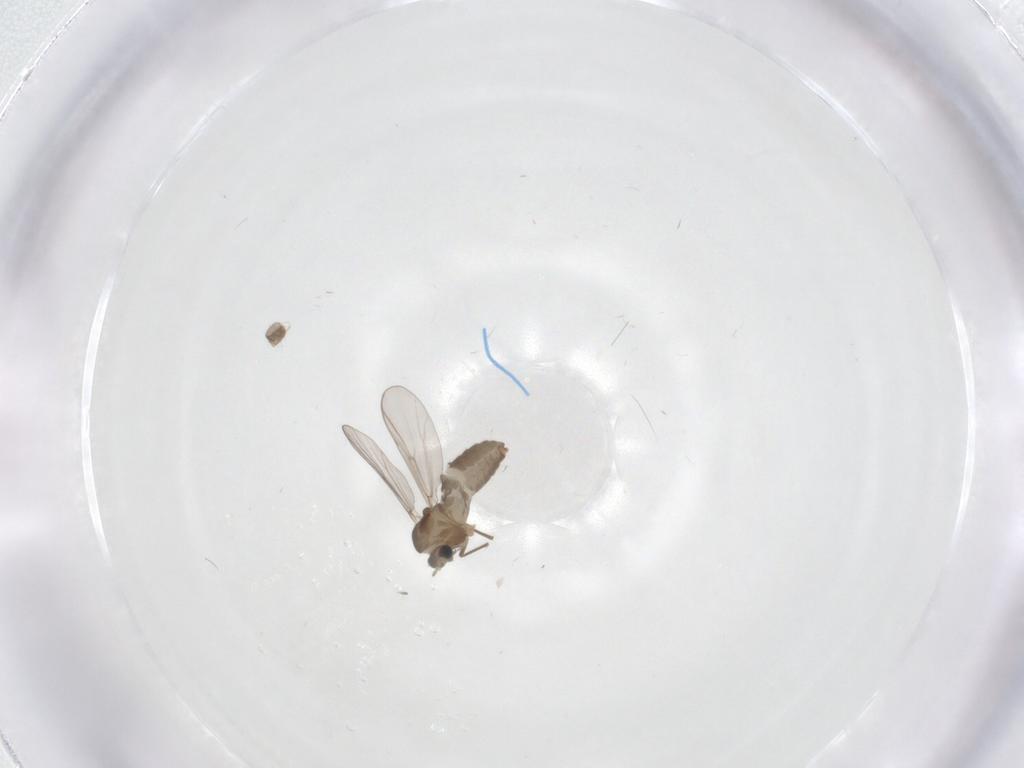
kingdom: Animalia
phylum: Arthropoda
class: Insecta
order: Diptera
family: Chironomidae
